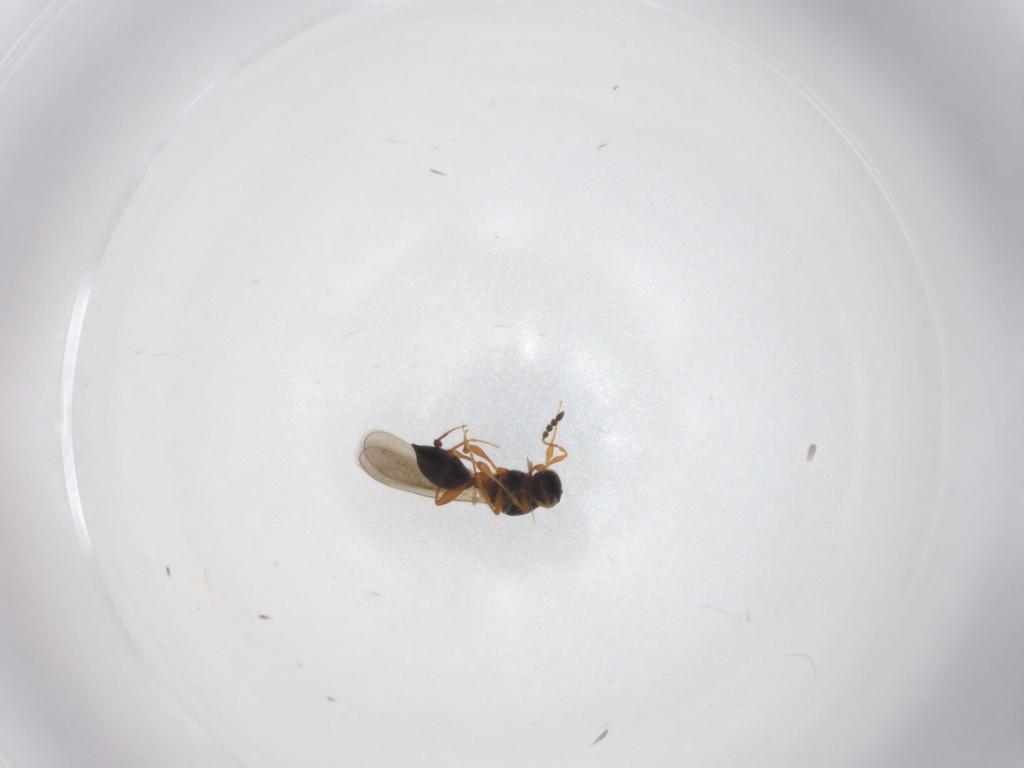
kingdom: Animalia
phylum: Arthropoda
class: Insecta
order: Hymenoptera
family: Platygastridae
